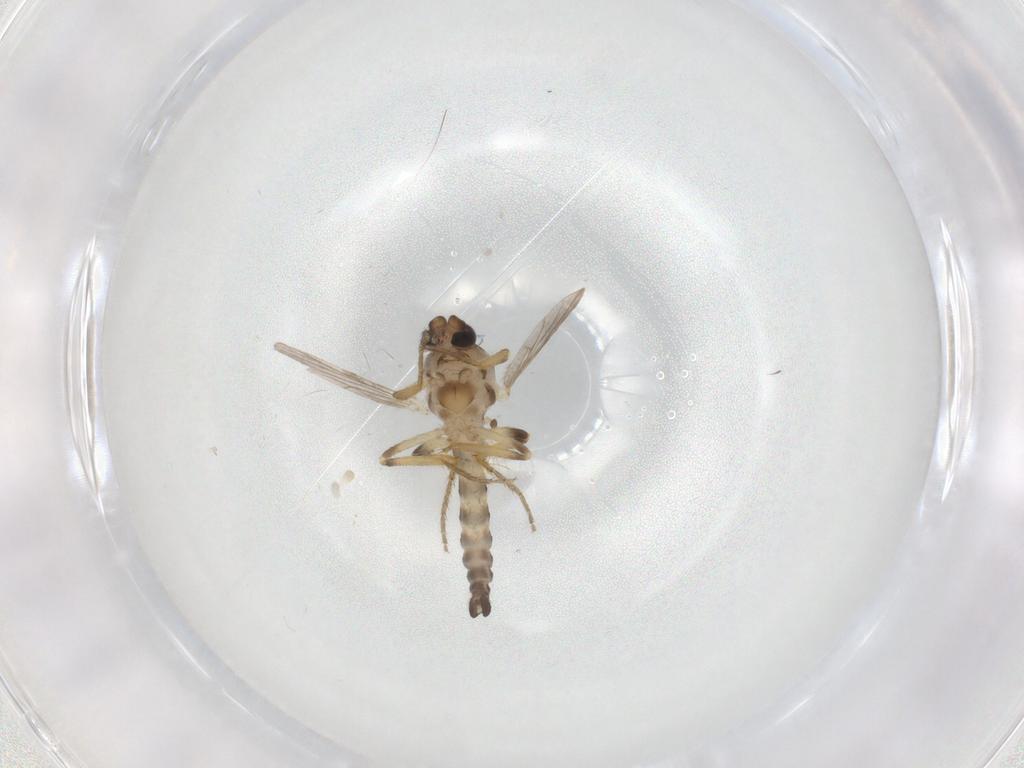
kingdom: Animalia
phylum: Arthropoda
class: Insecta
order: Diptera
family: Ceratopogonidae
